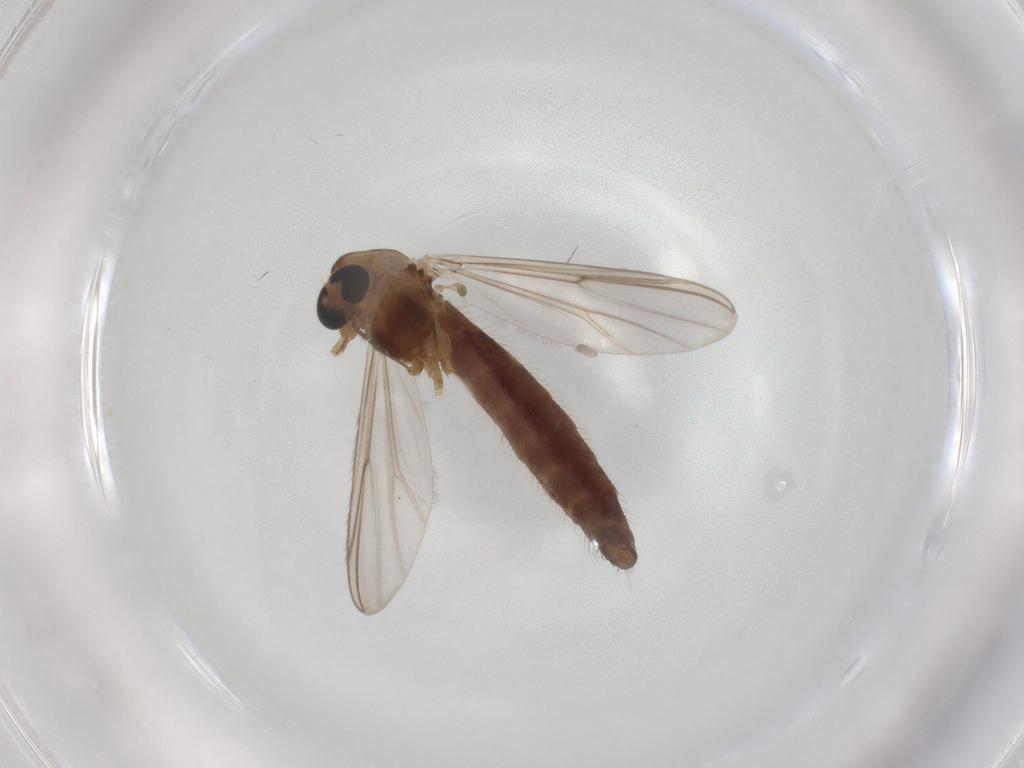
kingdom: Animalia
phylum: Arthropoda
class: Insecta
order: Diptera
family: Chironomidae
